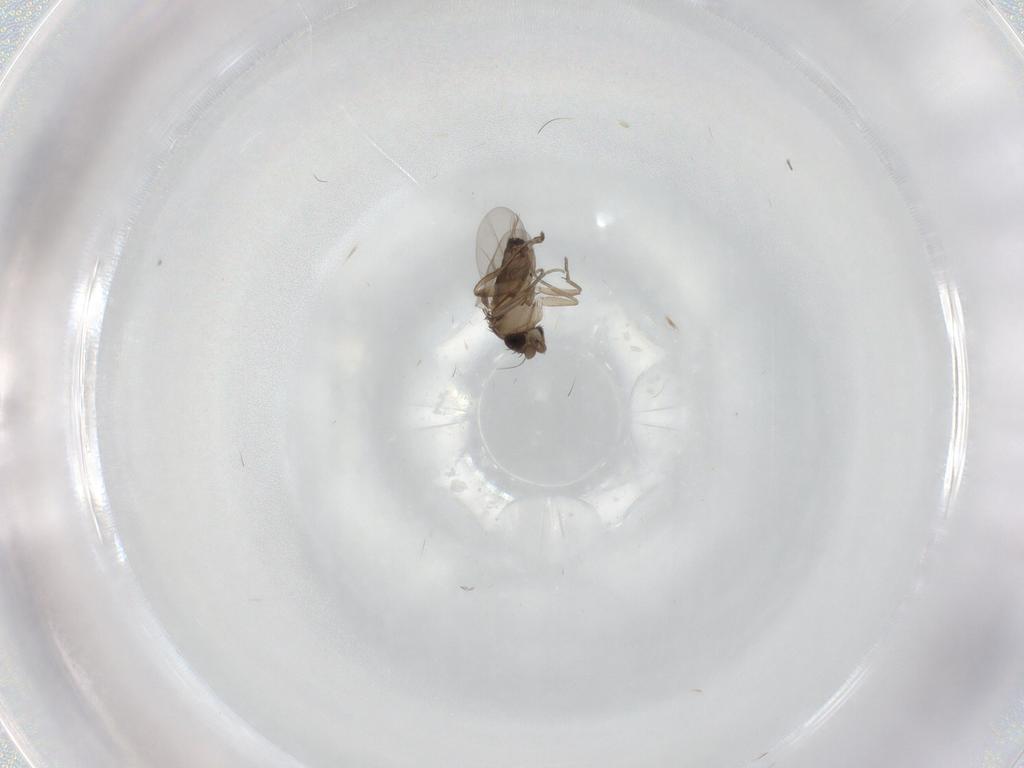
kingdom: Animalia
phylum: Arthropoda
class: Insecta
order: Diptera
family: Phoridae
